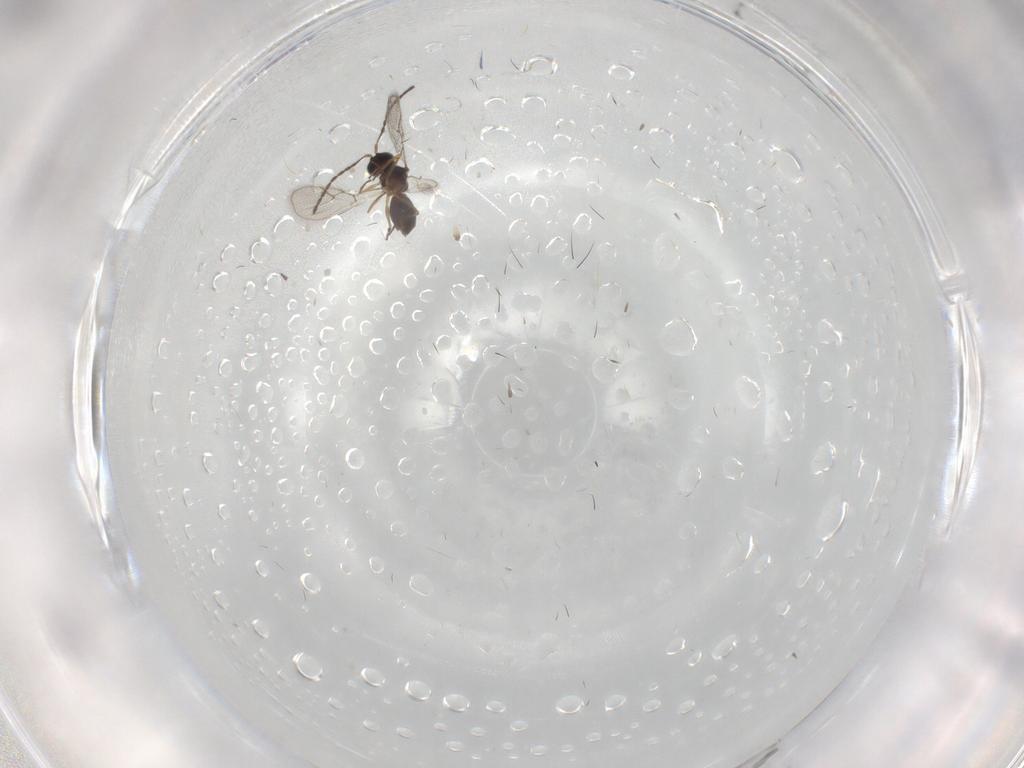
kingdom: Animalia
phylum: Arthropoda
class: Insecta
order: Hymenoptera
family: Figitidae
